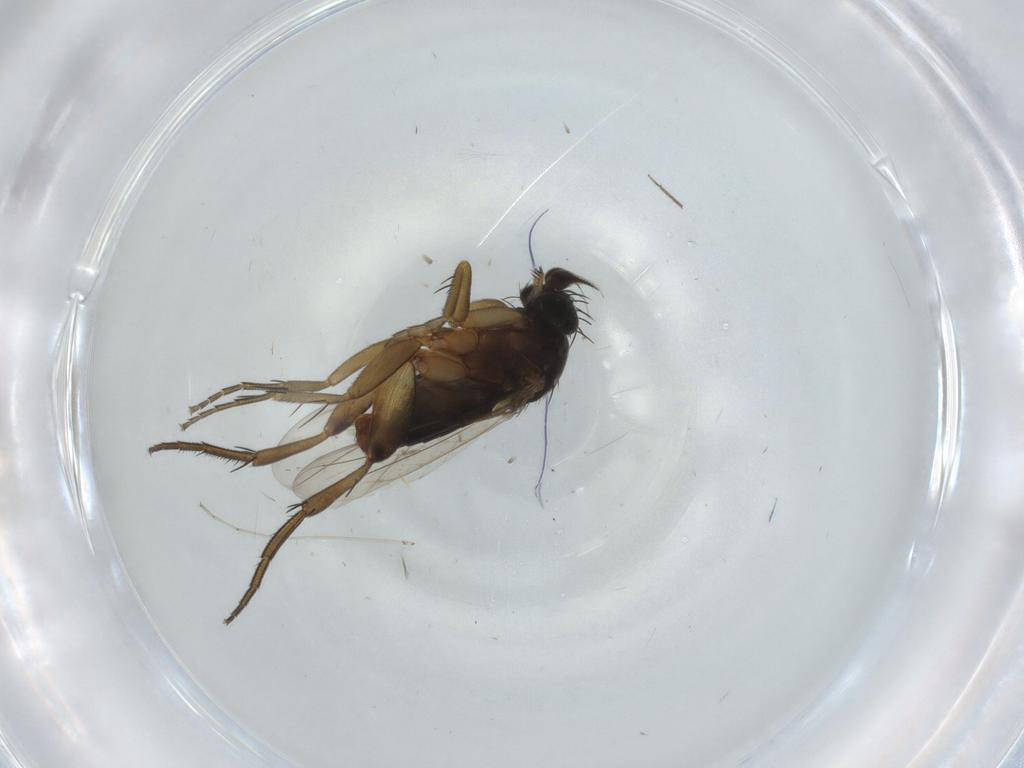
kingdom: Animalia
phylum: Arthropoda
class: Insecta
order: Diptera
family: Phoridae
